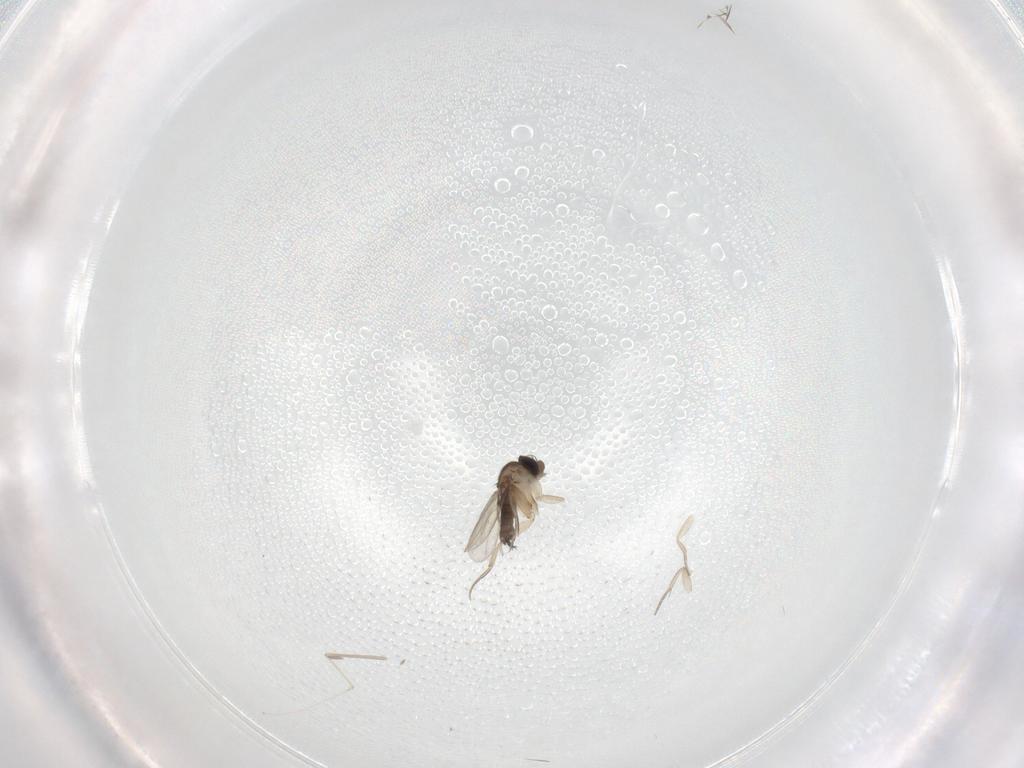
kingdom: Animalia
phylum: Arthropoda
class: Insecta
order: Diptera
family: Cecidomyiidae
